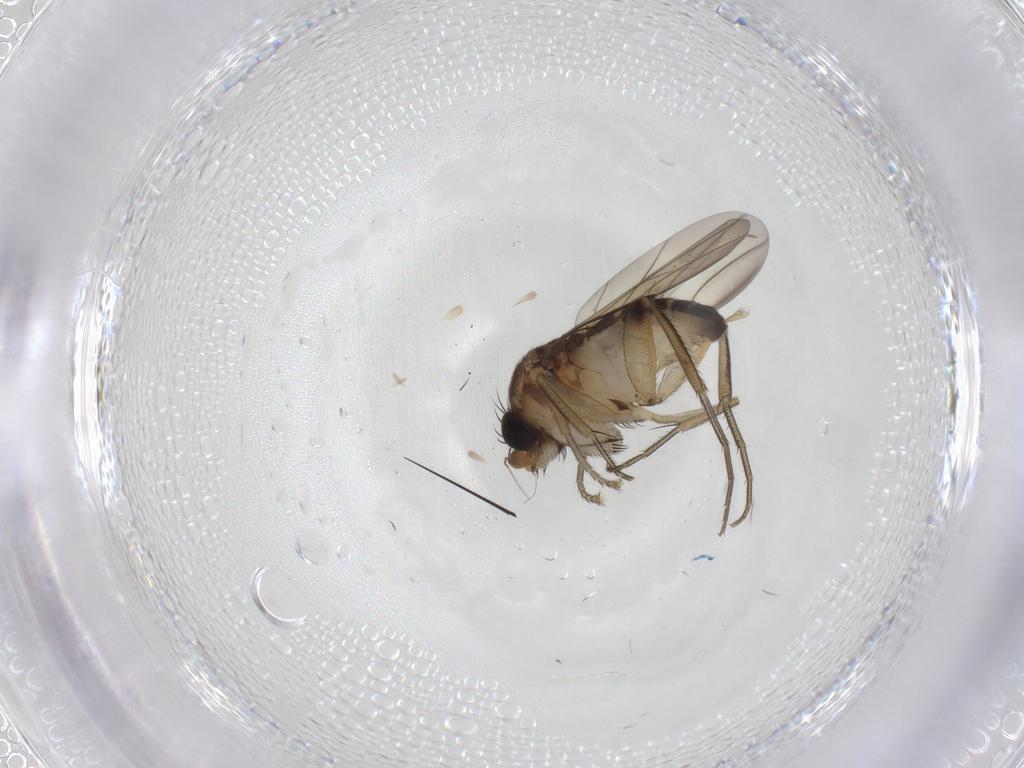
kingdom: Animalia
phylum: Arthropoda
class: Insecta
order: Diptera
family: Phoridae
